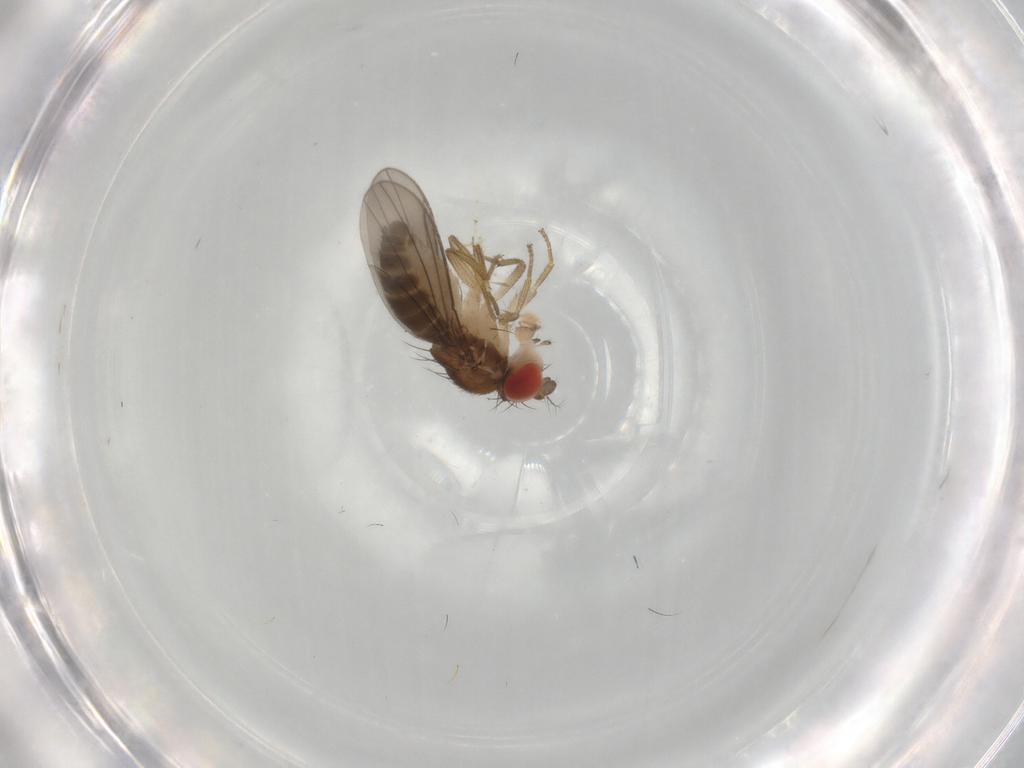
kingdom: Animalia
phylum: Arthropoda
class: Insecta
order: Diptera
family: Drosophilidae
